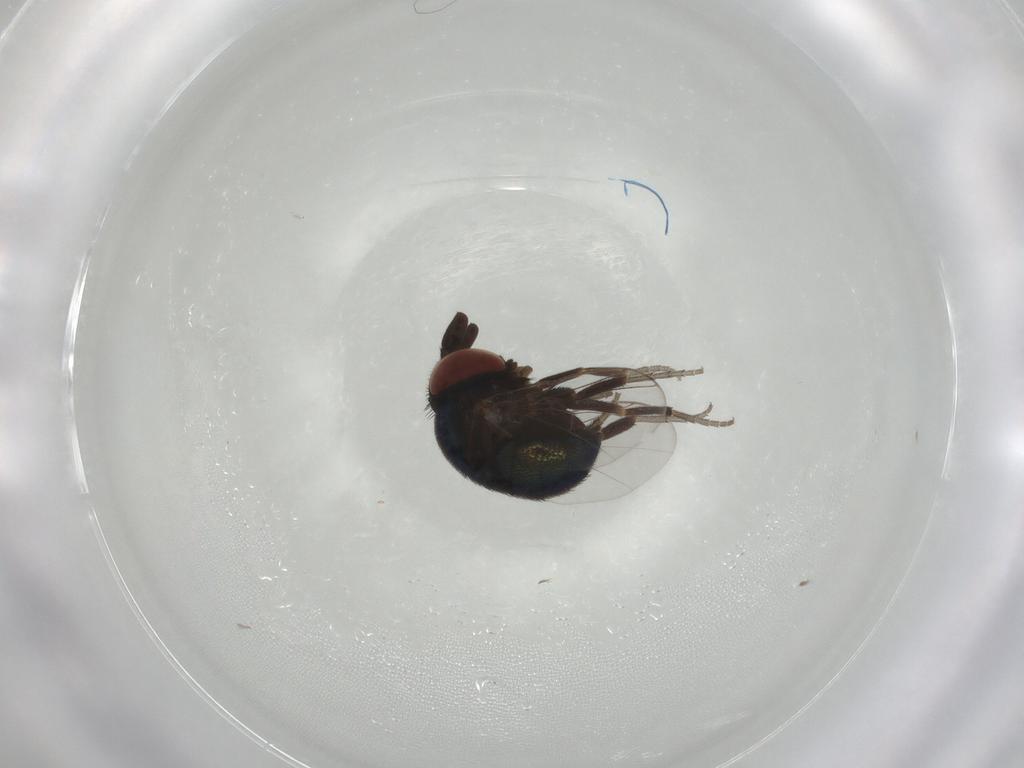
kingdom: Animalia
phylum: Arthropoda
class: Insecta
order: Diptera
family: Cryptochetidae
